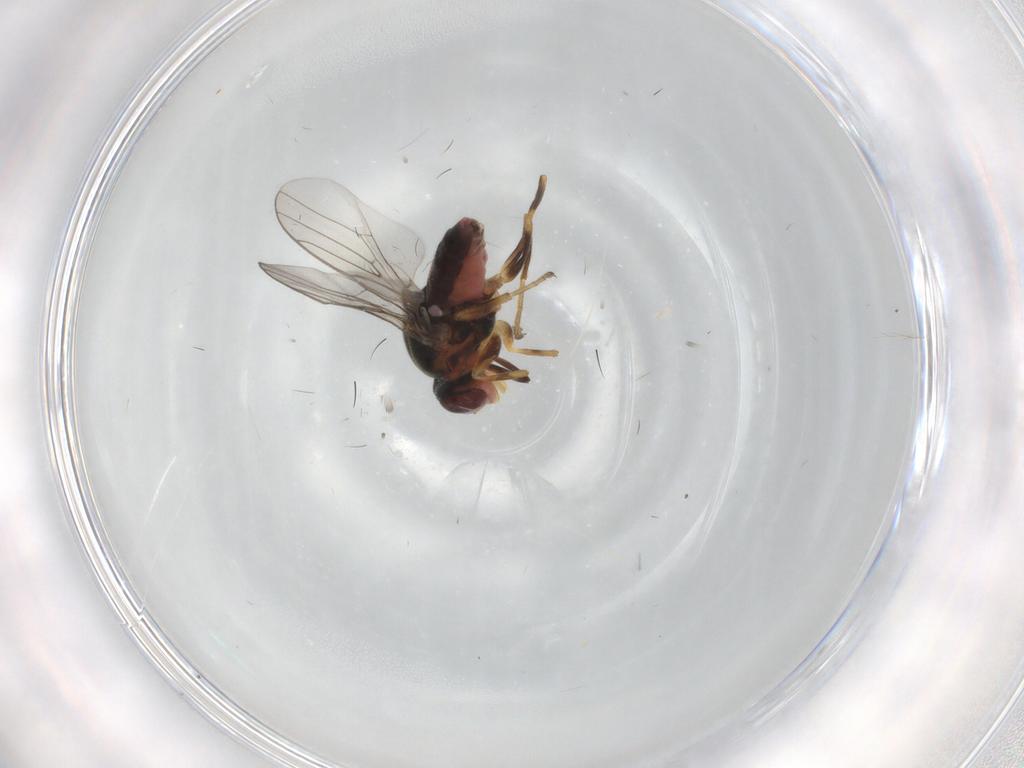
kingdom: Animalia
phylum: Arthropoda
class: Insecta
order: Diptera
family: Chloropidae
